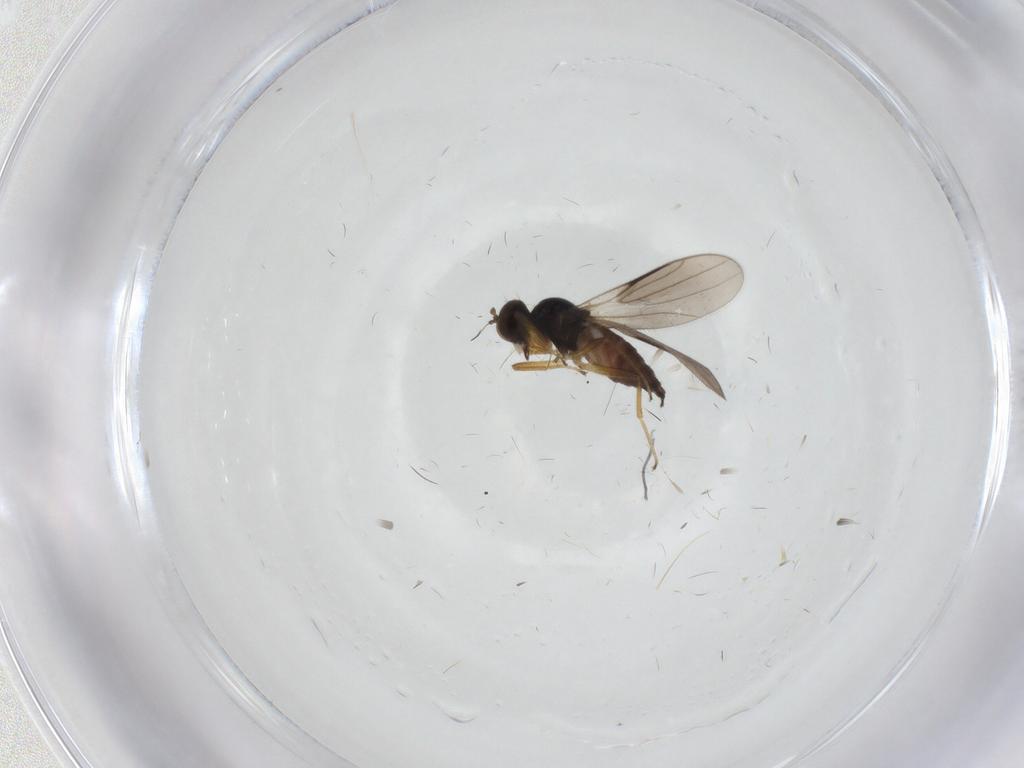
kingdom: Animalia
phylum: Arthropoda
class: Insecta
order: Diptera
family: Hybotidae
